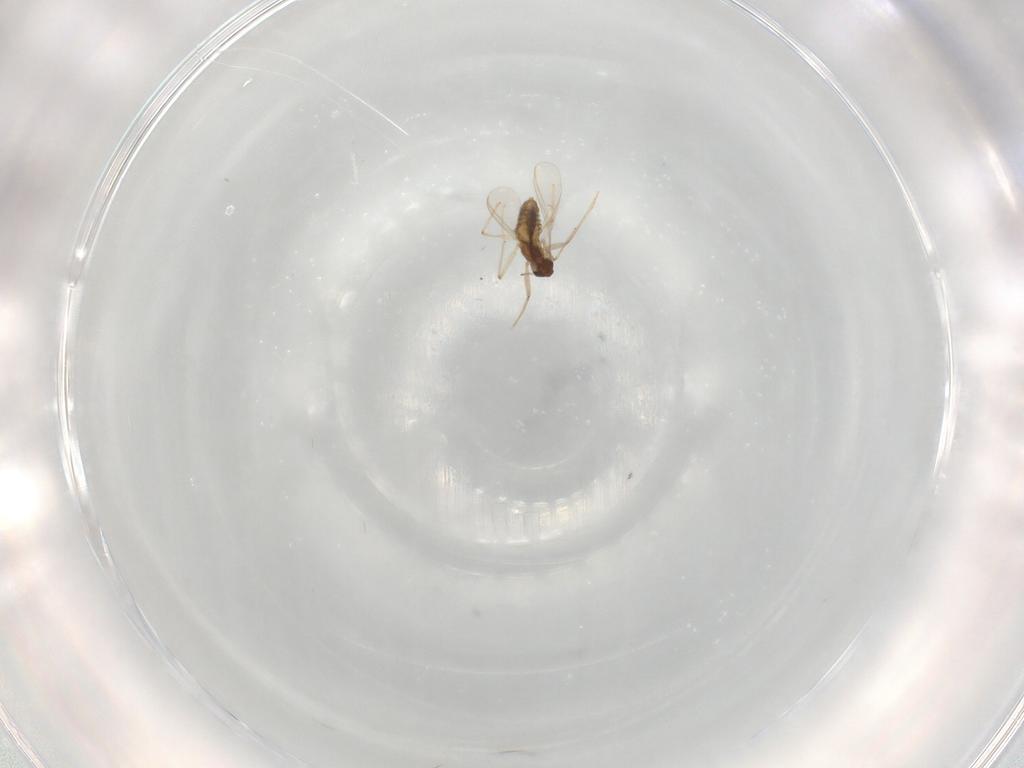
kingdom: Animalia
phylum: Arthropoda
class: Insecta
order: Diptera
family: Chironomidae
